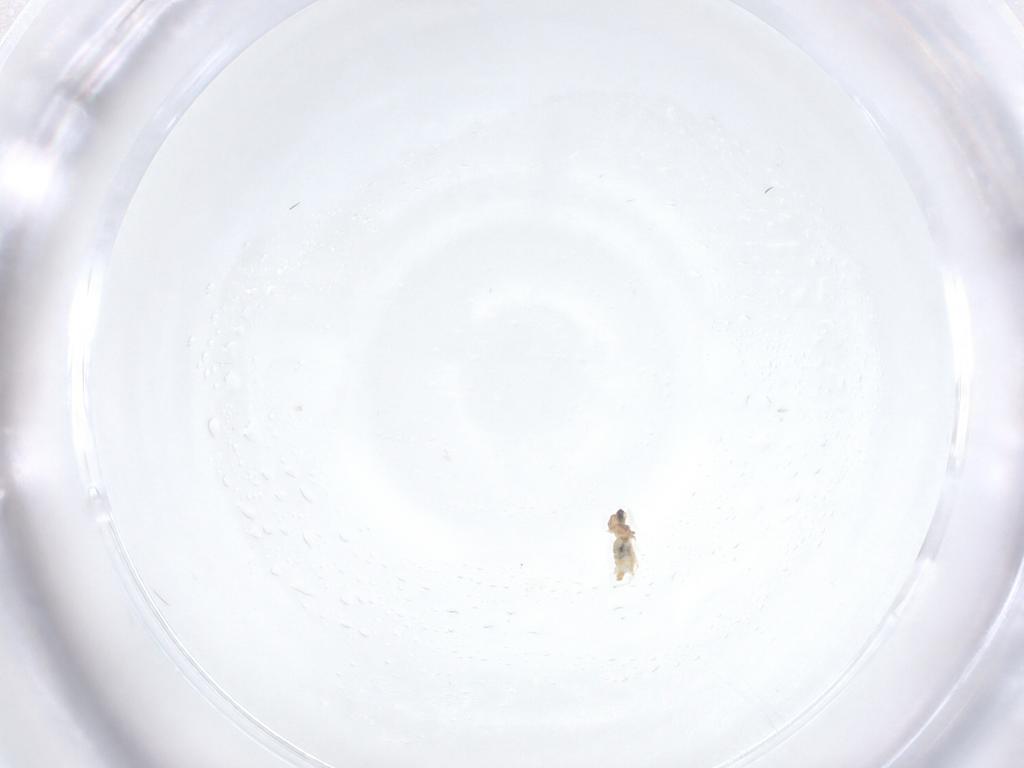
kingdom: Animalia
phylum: Arthropoda
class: Insecta
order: Diptera
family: Cecidomyiidae
